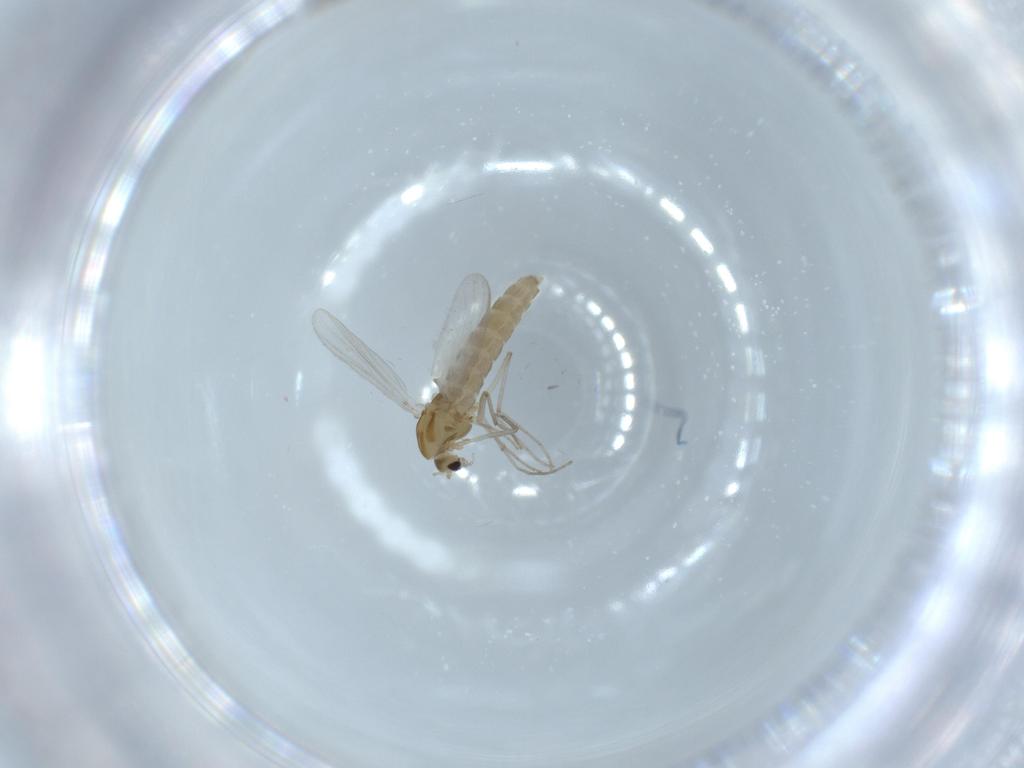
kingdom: Animalia
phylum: Arthropoda
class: Insecta
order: Diptera
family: Chironomidae
